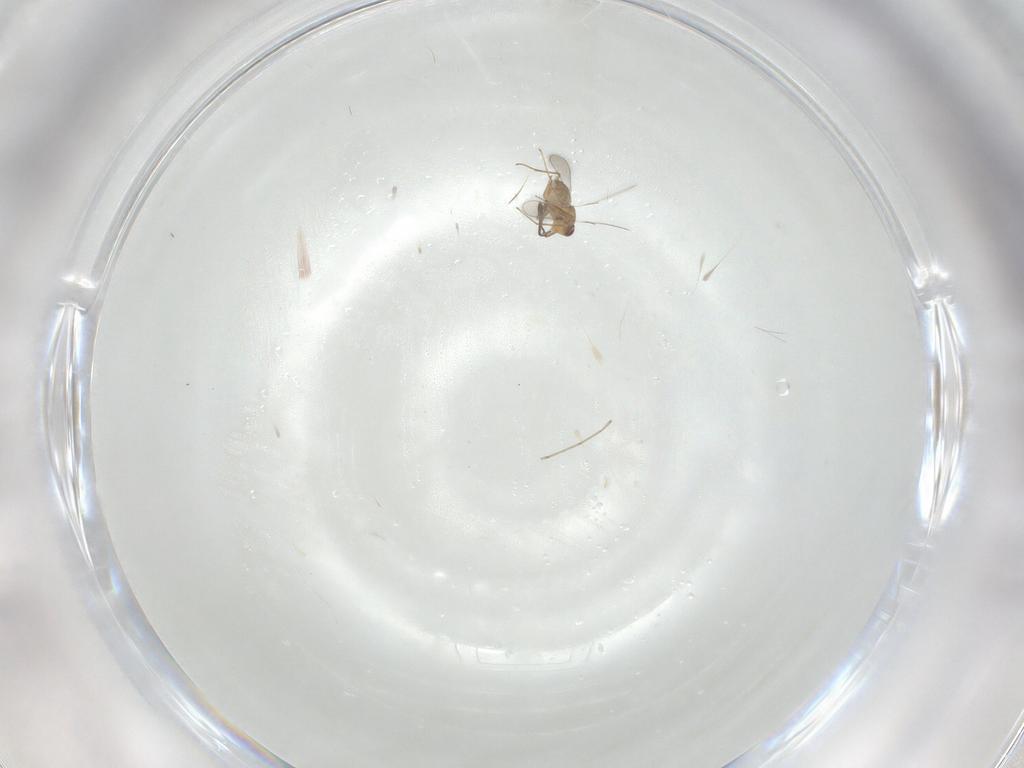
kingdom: Animalia
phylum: Arthropoda
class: Insecta
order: Diptera
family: Cecidomyiidae
